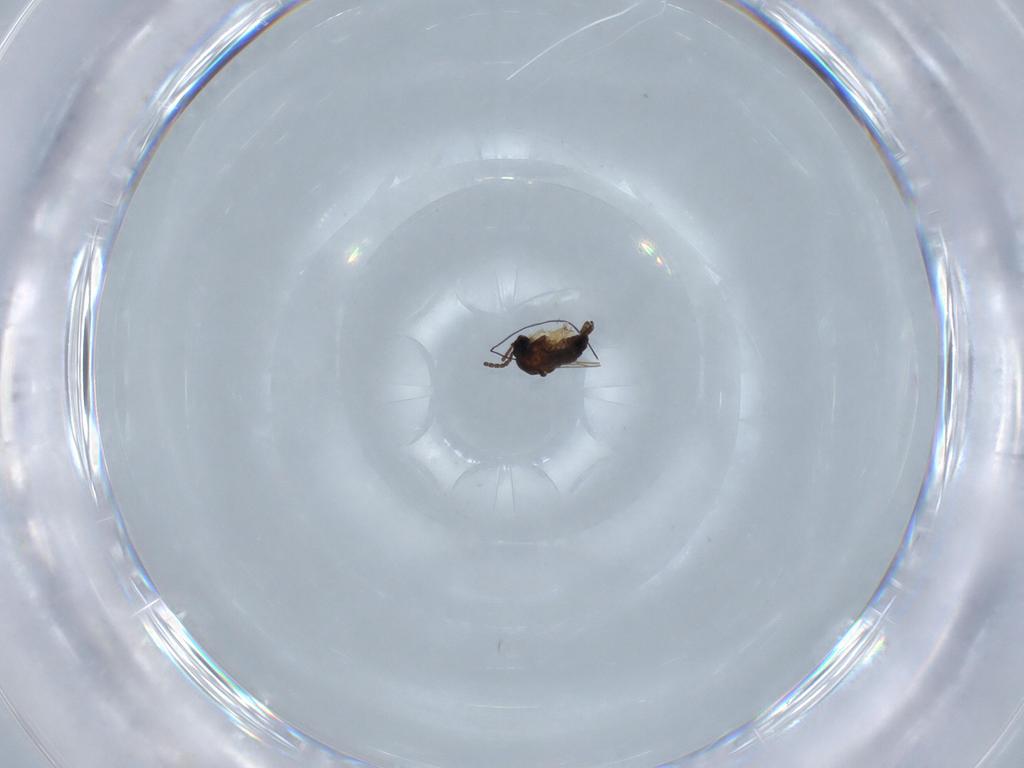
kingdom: Animalia
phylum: Arthropoda
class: Insecta
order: Diptera
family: Sciaridae
